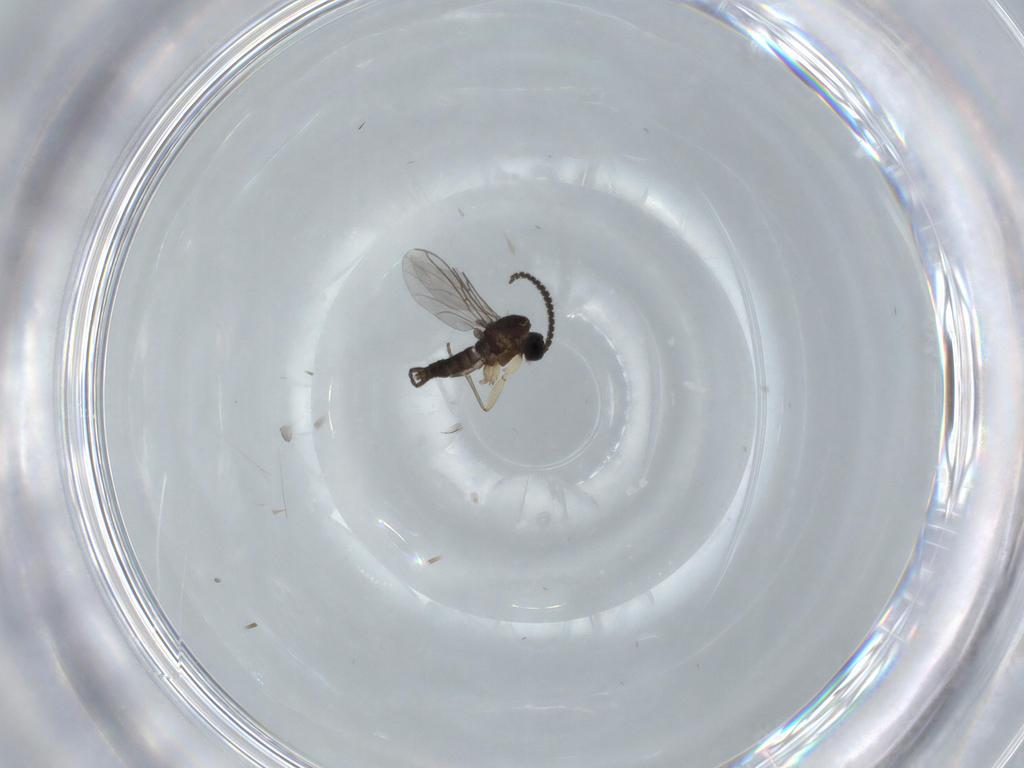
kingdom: Animalia
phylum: Arthropoda
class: Insecta
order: Diptera
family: Sciaridae
